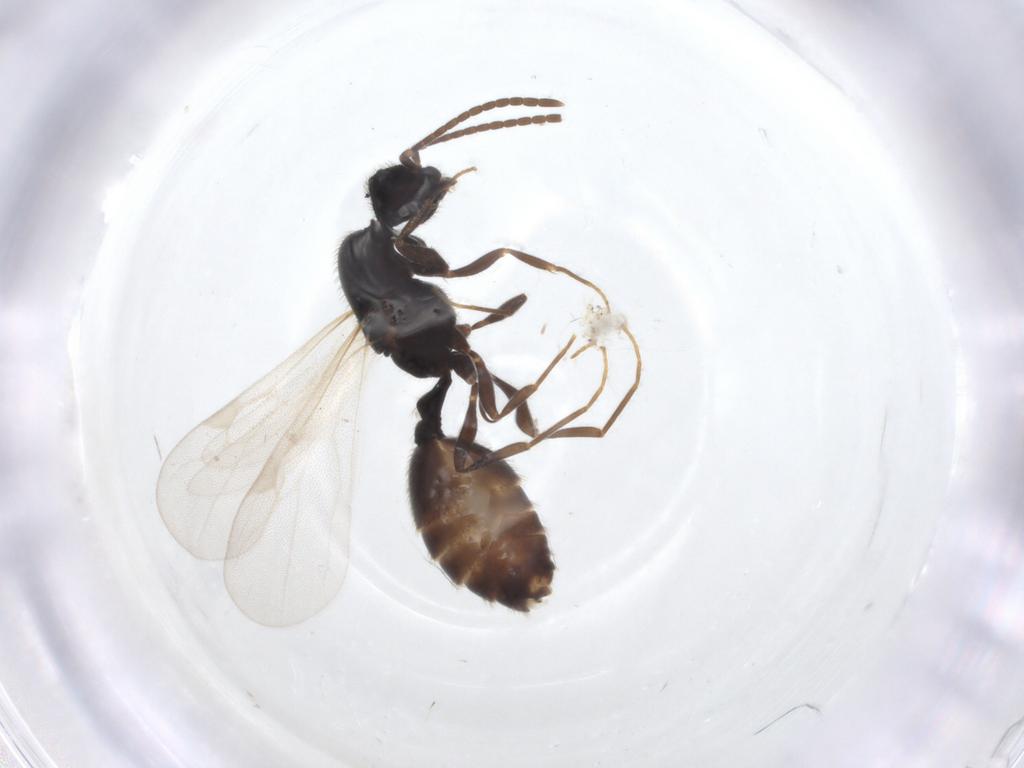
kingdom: Animalia
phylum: Arthropoda
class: Insecta
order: Hymenoptera
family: Formicidae
